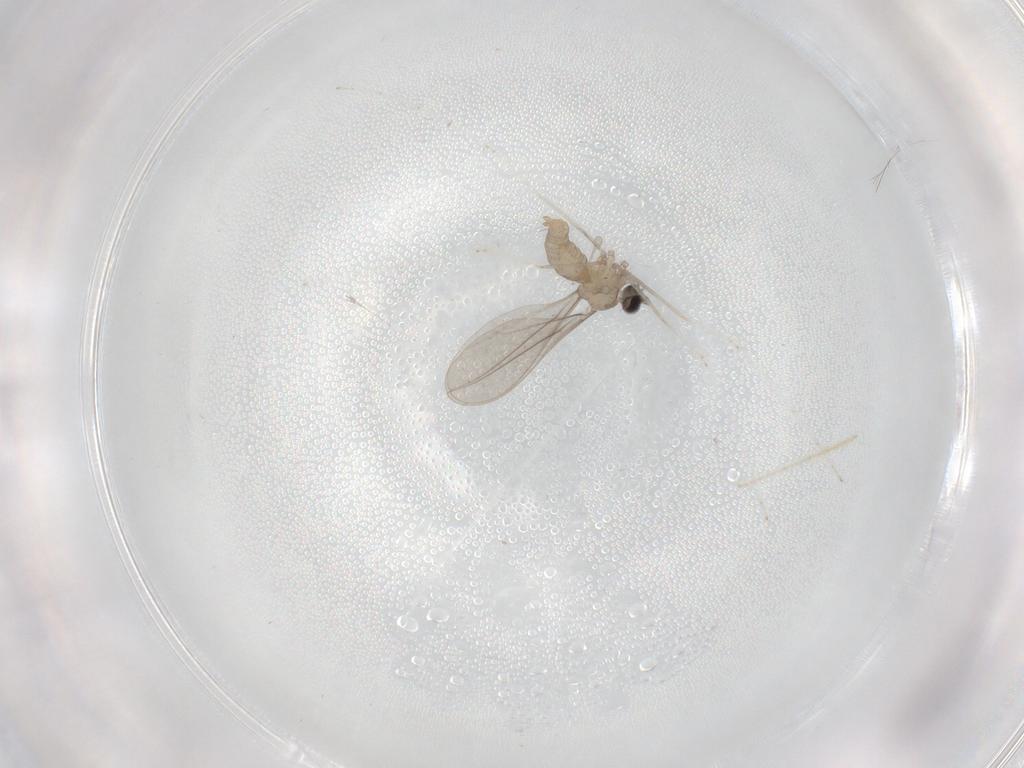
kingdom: Animalia
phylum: Arthropoda
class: Insecta
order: Diptera
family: Cecidomyiidae
